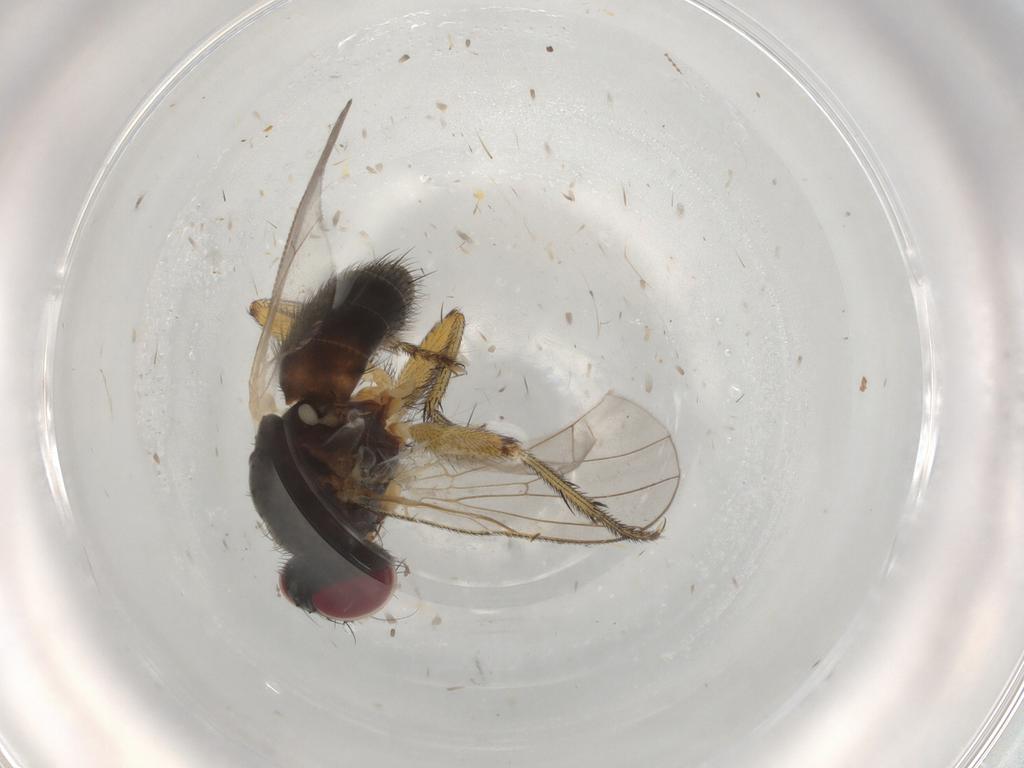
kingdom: Animalia
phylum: Arthropoda
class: Insecta
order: Diptera
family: Muscidae
